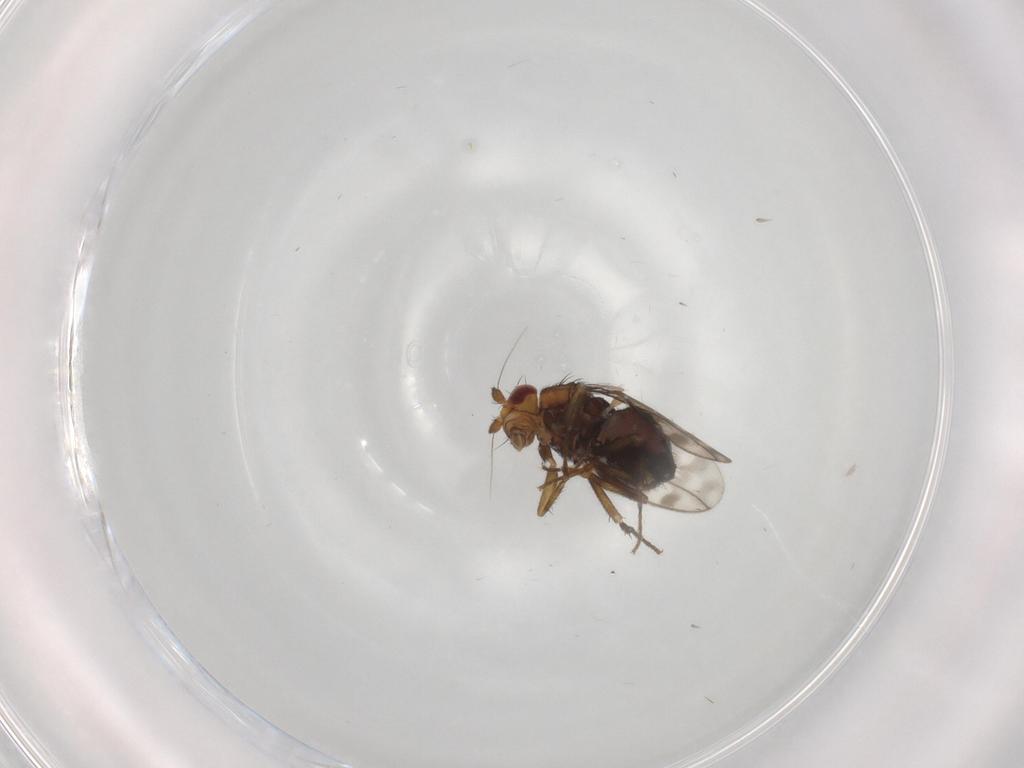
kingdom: Animalia
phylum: Arthropoda
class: Insecta
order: Diptera
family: Sphaeroceridae
